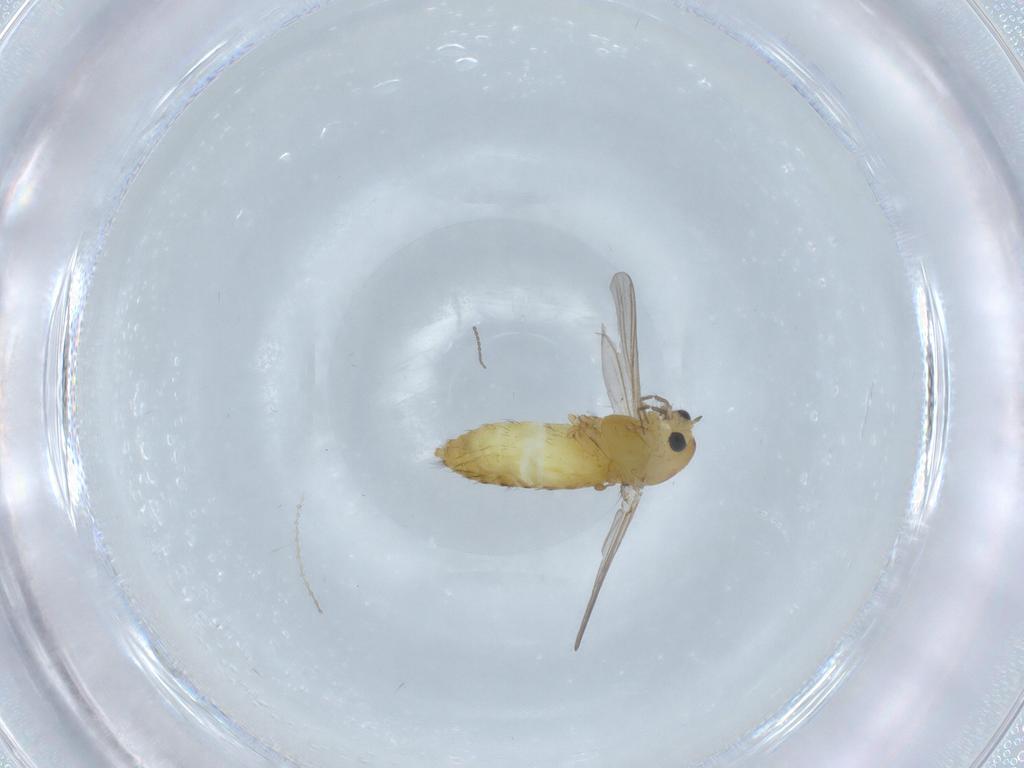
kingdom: Animalia
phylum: Arthropoda
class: Insecta
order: Diptera
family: Chironomidae
